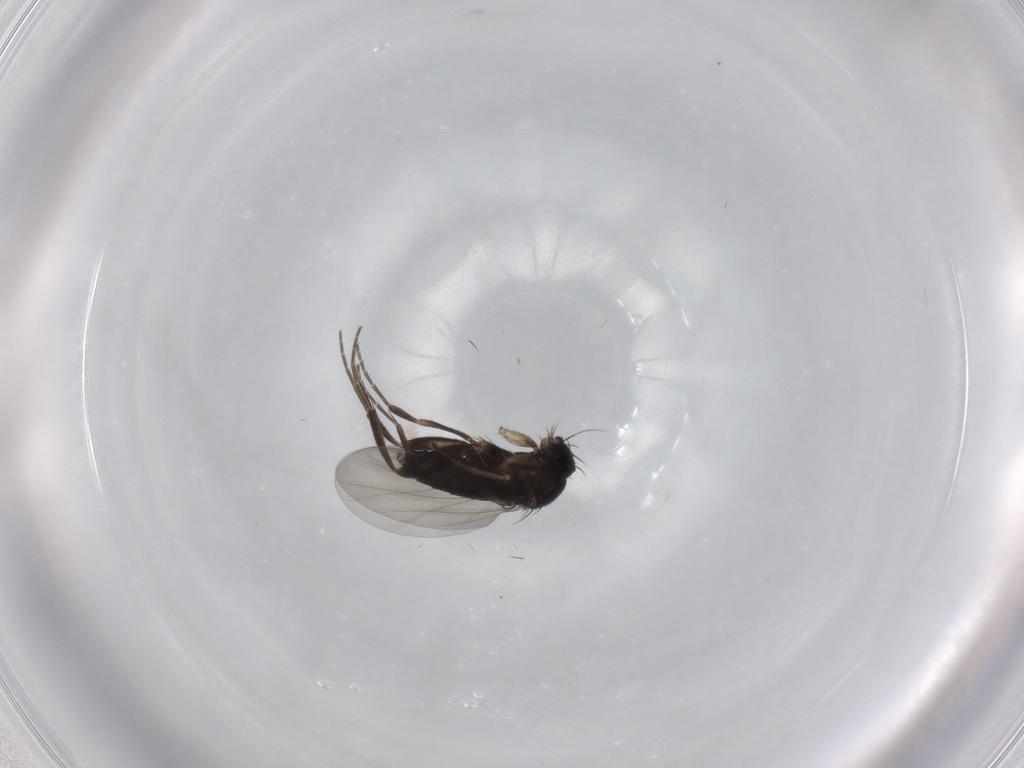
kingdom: Animalia
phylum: Arthropoda
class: Insecta
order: Diptera
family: Phoridae
